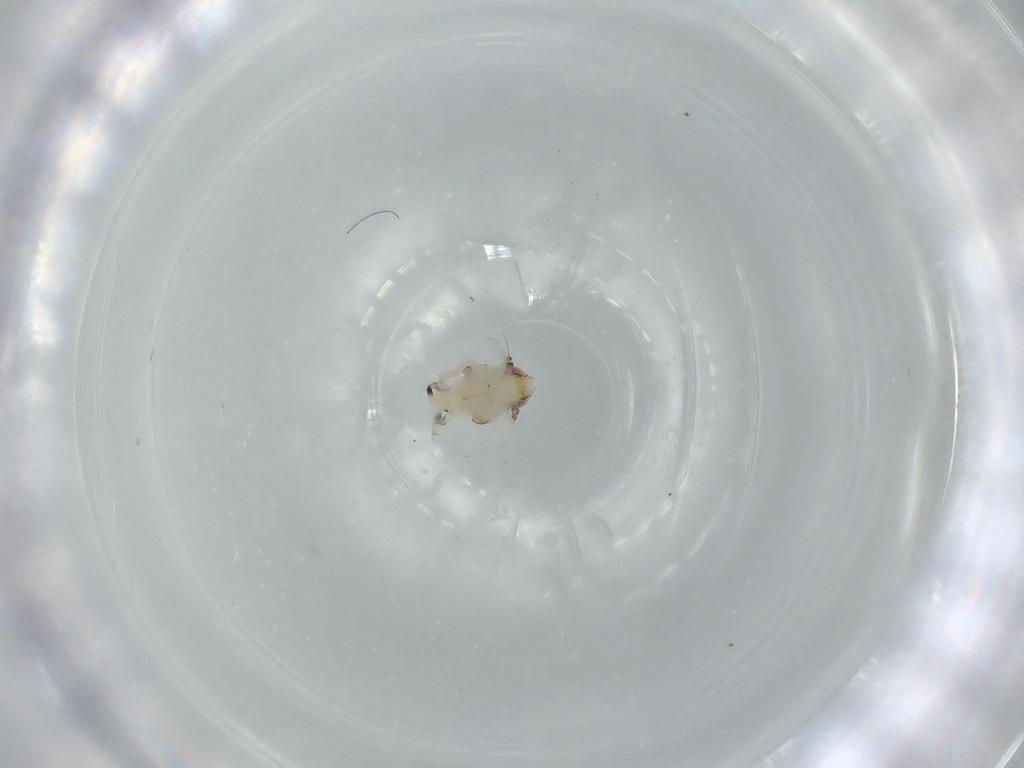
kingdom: Animalia
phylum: Arthropoda
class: Insecta
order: Hemiptera
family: Nogodinidae
